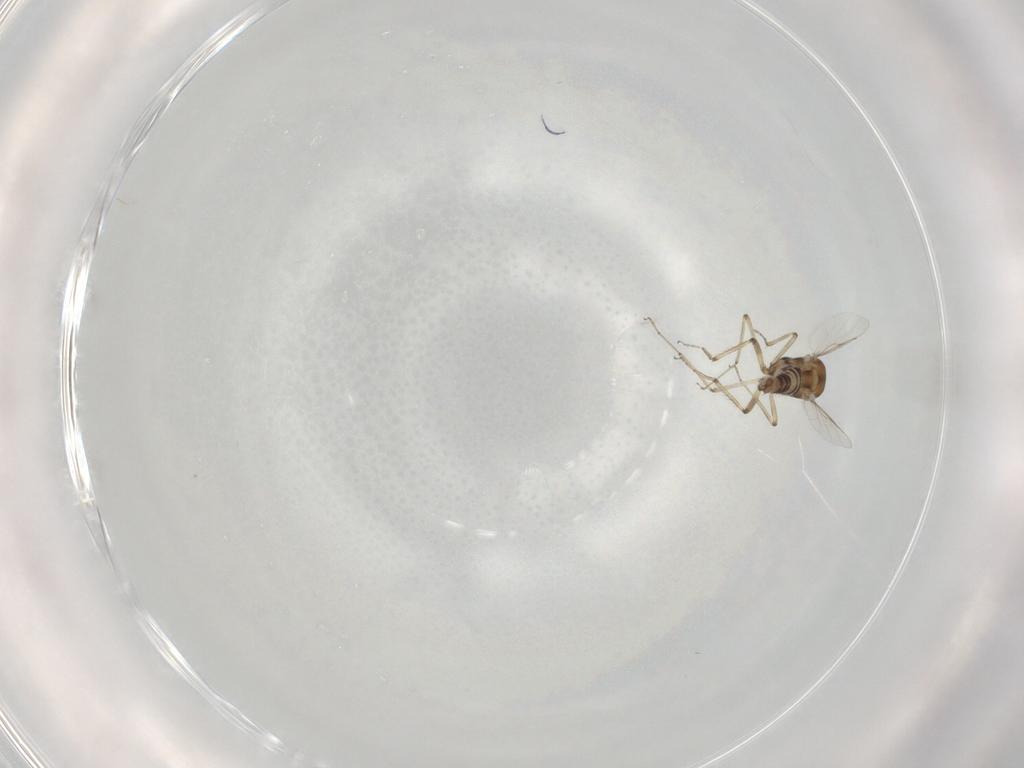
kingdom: Animalia
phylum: Arthropoda
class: Insecta
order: Diptera
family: Ceratopogonidae
